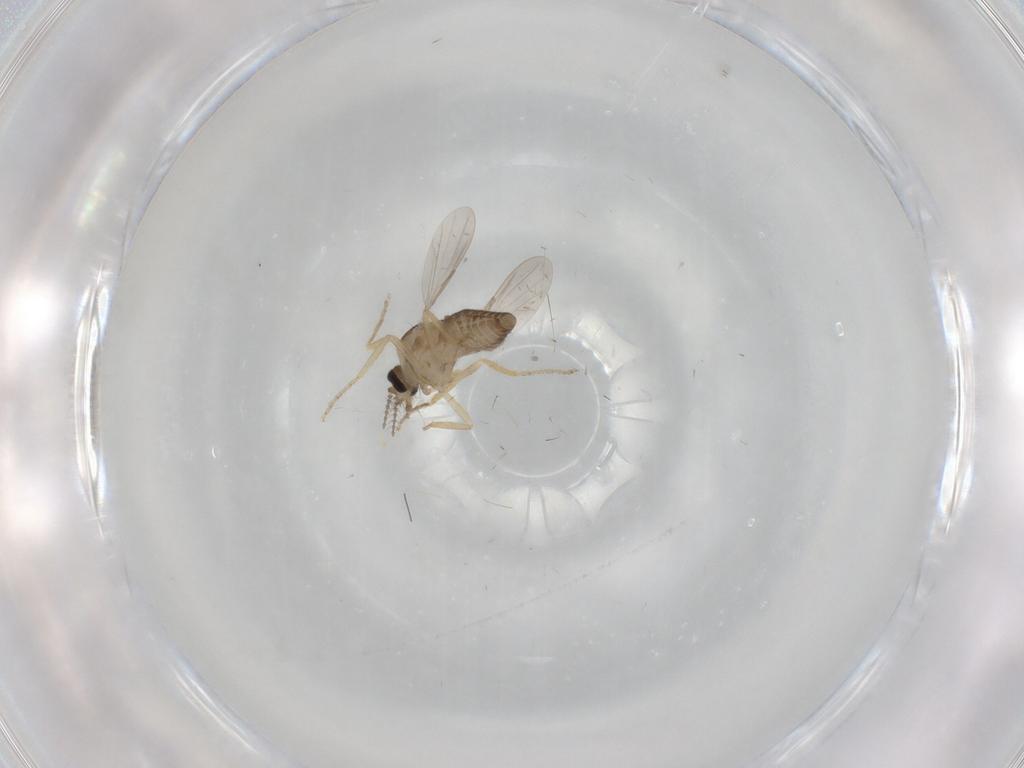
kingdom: Animalia
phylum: Arthropoda
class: Insecta
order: Diptera
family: Ceratopogonidae
